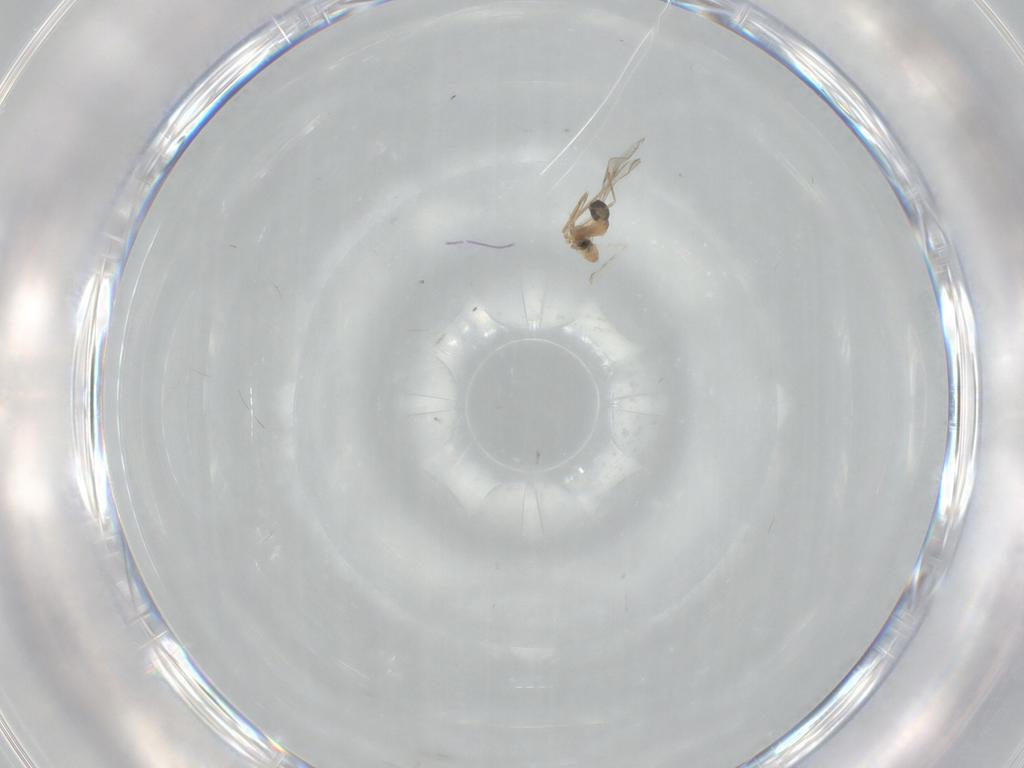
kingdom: Animalia
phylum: Arthropoda
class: Insecta
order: Diptera
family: Cecidomyiidae
